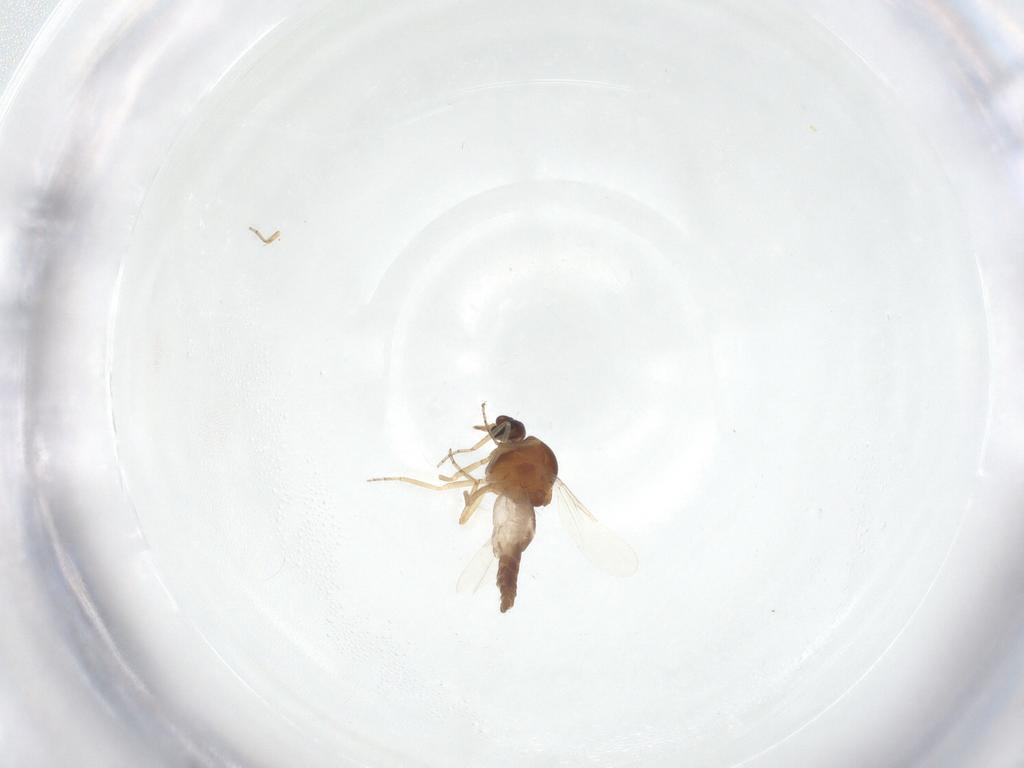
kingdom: Animalia
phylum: Arthropoda
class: Insecta
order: Diptera
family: Ceratopogonidae
